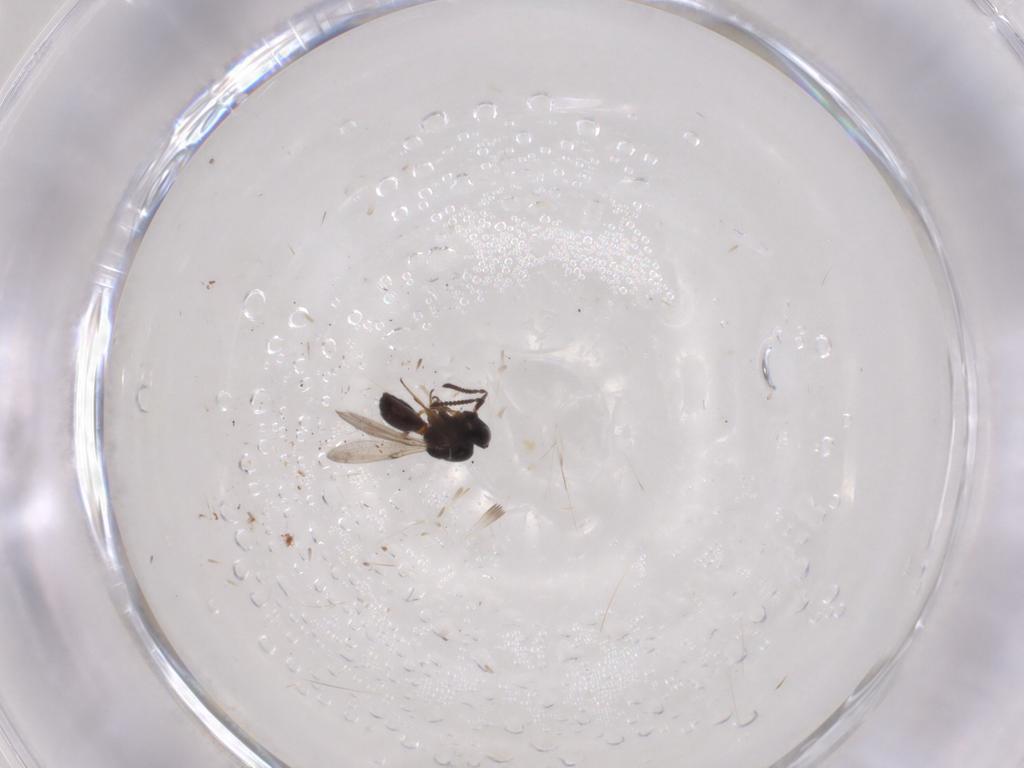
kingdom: Animalia
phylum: Arthropoda
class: Insecta
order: Hymenoptera
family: Scelionidae
